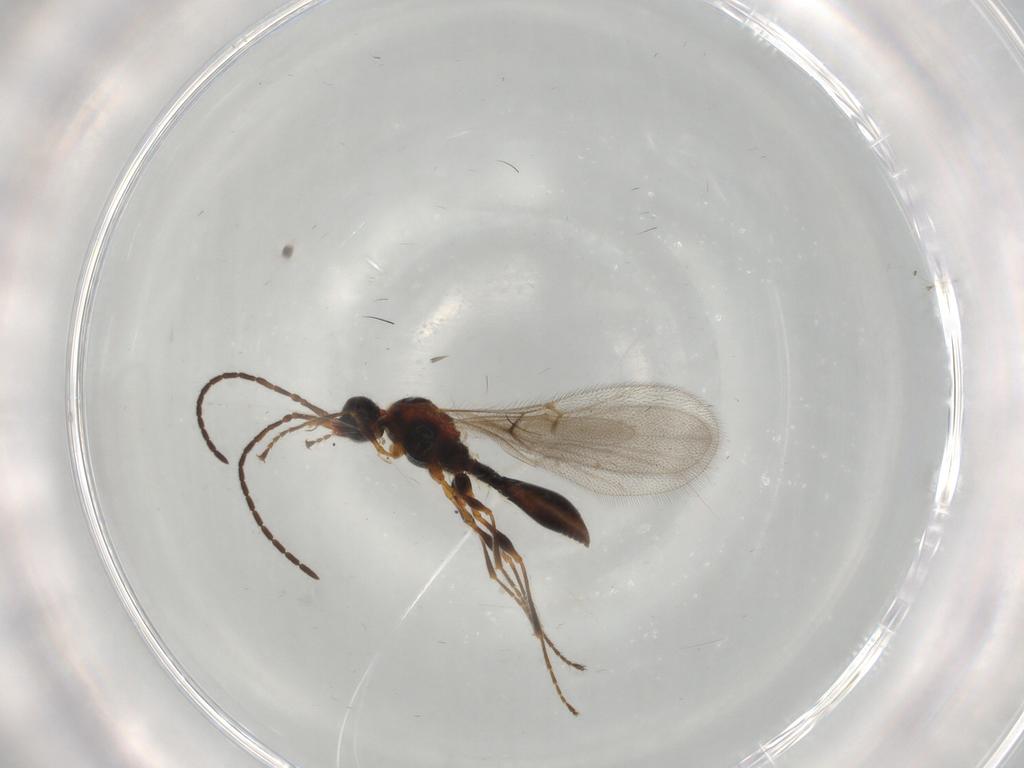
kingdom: Animalia
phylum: Arthropoda
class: Insecta
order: Hymenoptera
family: Diapriidae
